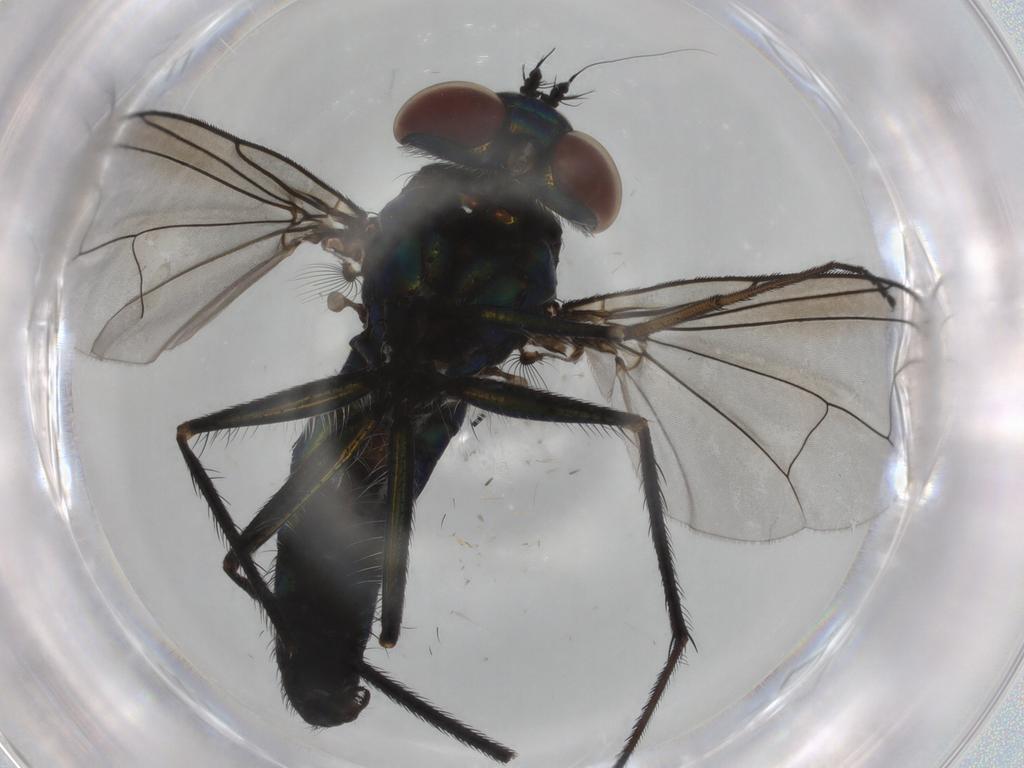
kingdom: Animalia
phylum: Arthropoda
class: Insecta
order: Diptera
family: Dolichopodidae
